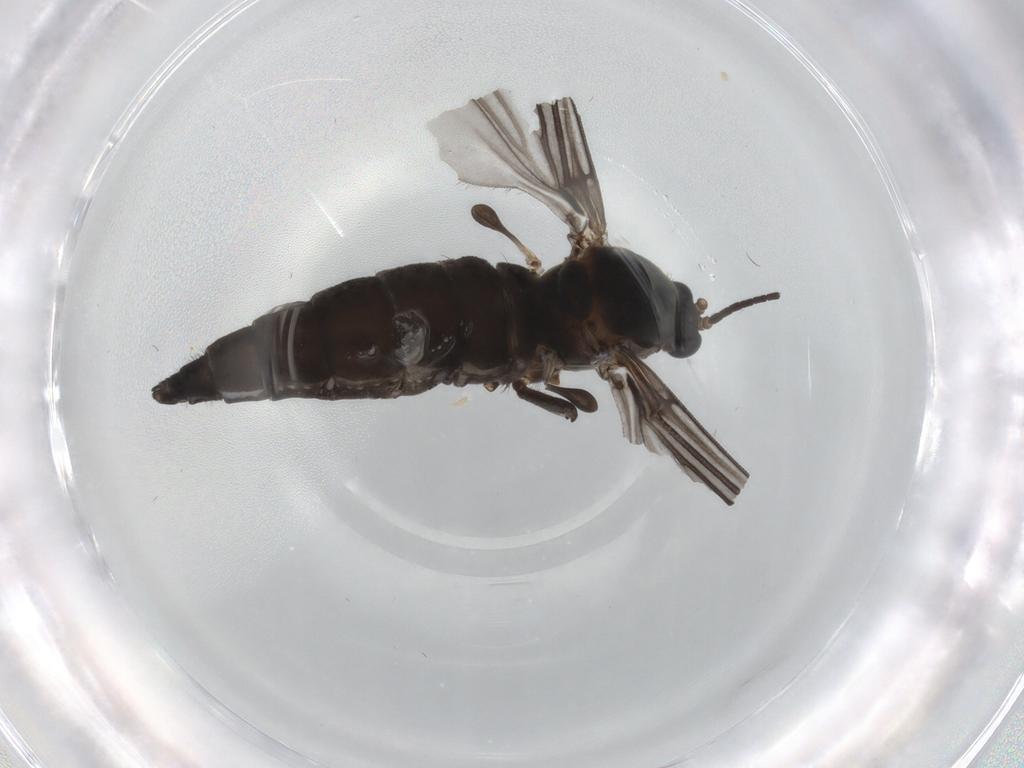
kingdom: Animalia
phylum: Arthropoda
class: Insecta
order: Diptera
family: Sciaridae
